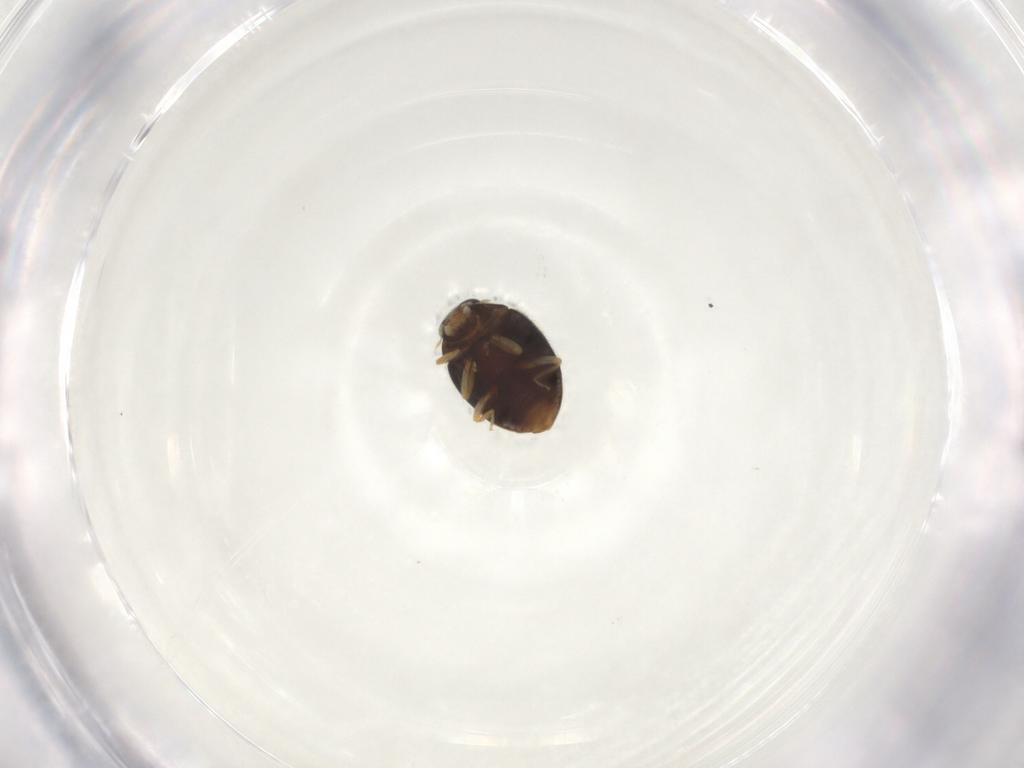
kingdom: Animalia
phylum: Arthropoda
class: Insecta
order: Coleoptera
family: Coccinellidae
